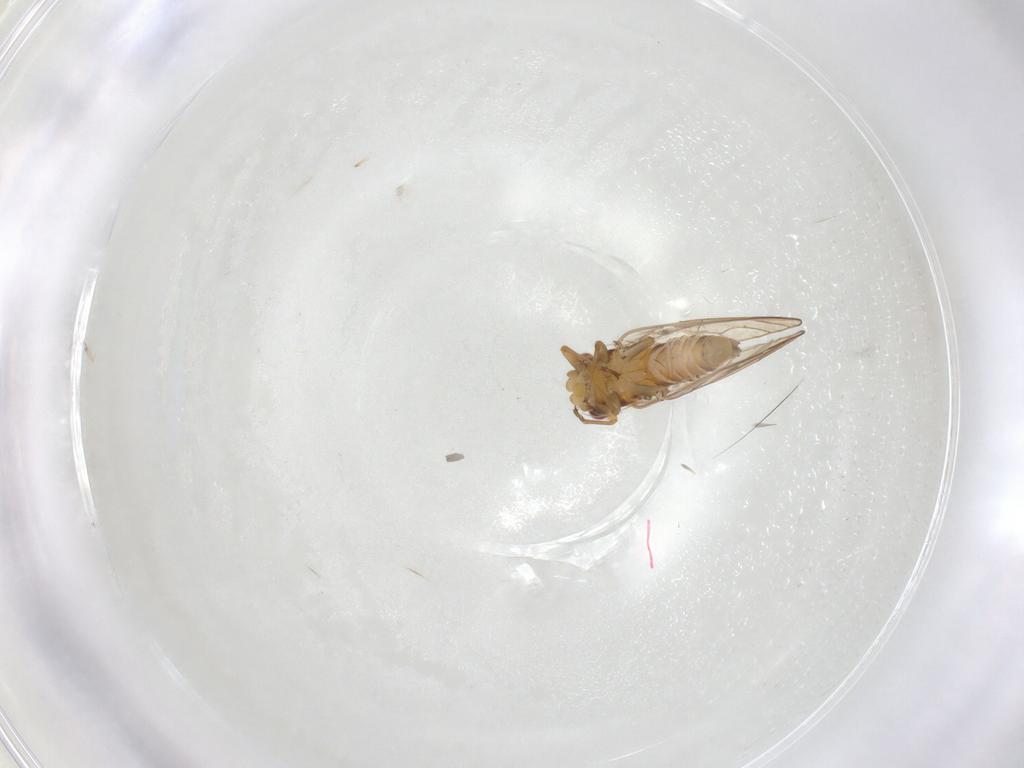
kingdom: Animalia
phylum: Arthropoda
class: Insecta
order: Hemiptera
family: Psyllidae
